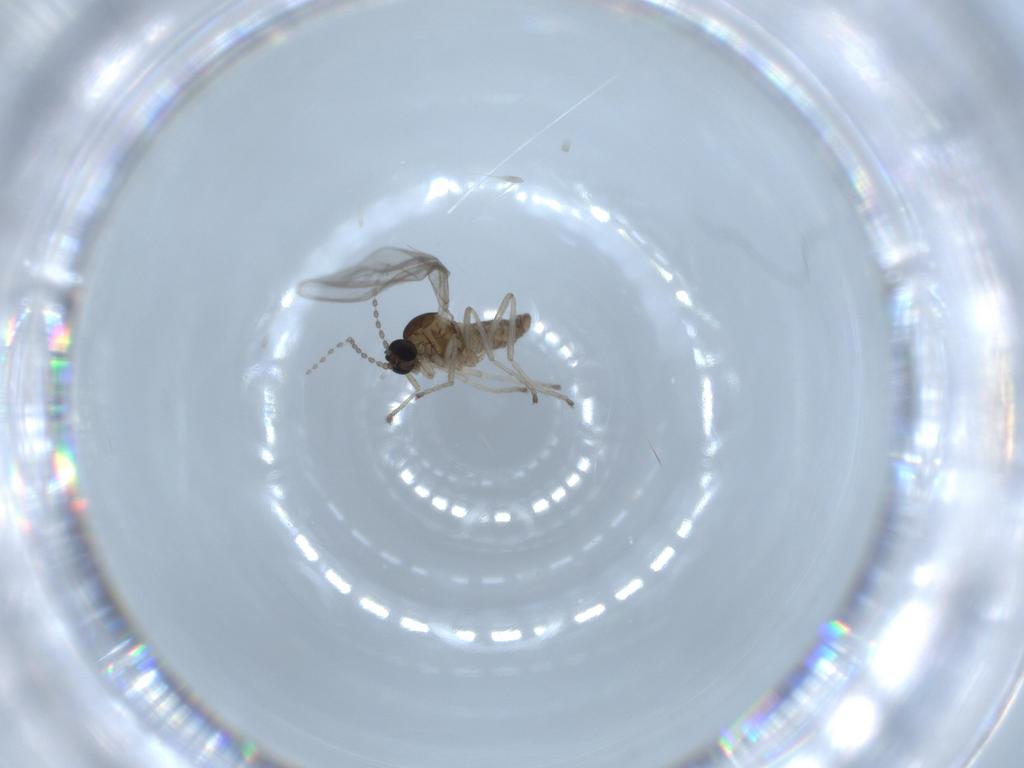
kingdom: Animalia
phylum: Arthropoda
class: Insecta
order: Diptera
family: Cecidomyiidae
